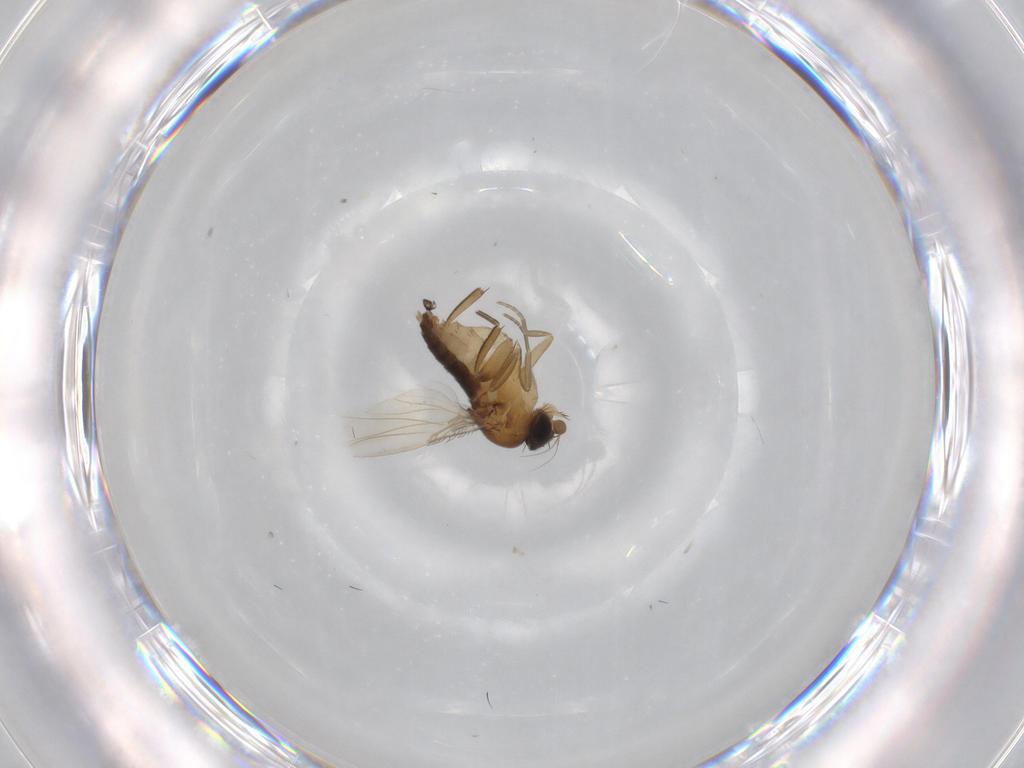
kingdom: Animalia
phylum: Arthropoda
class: Insecta
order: Diptera
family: Phoridae
